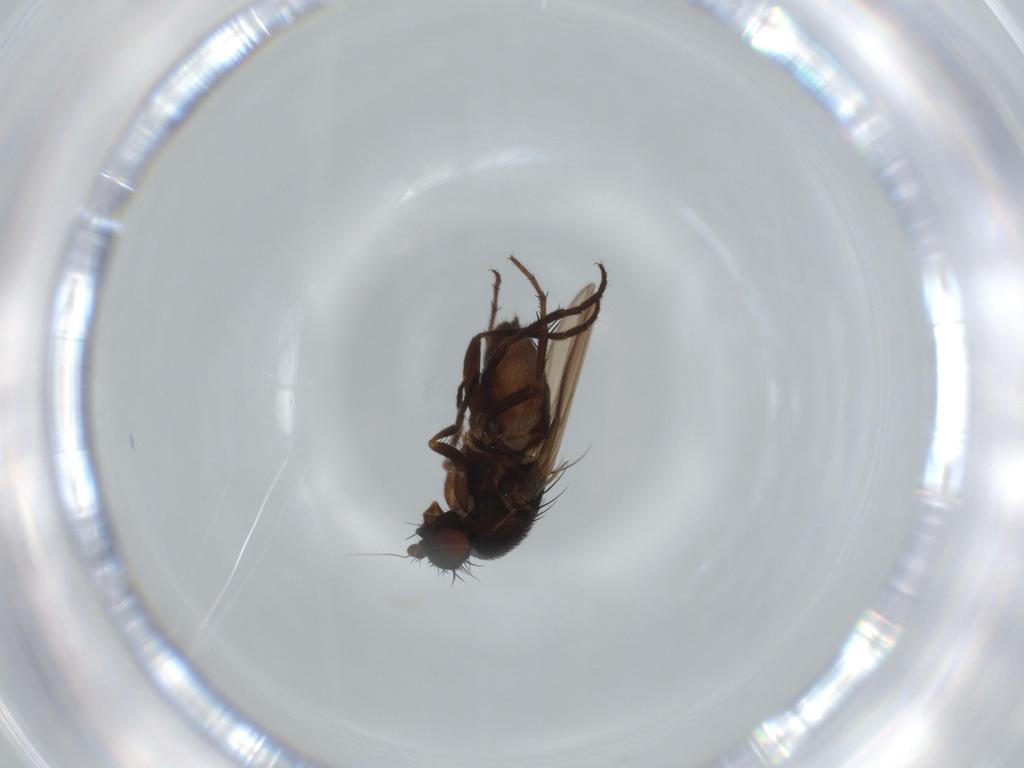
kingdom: Animalia
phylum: Arthropoda
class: Insecta
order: Diptera
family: Sphaeroceridae
